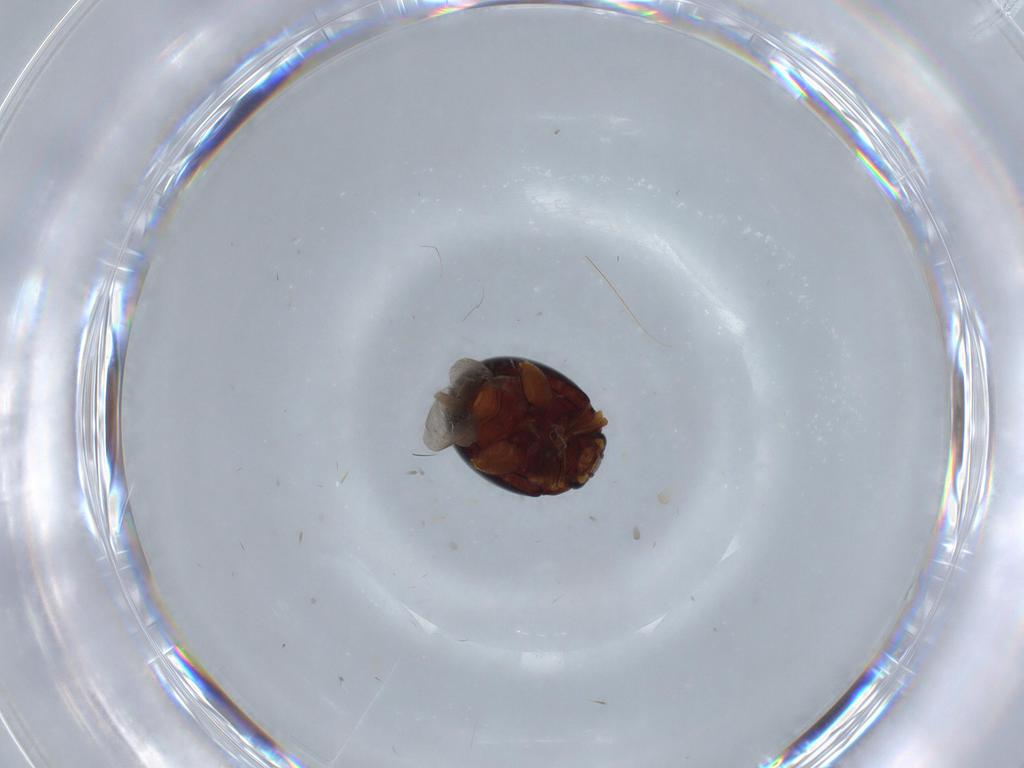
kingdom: Animalia
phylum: Arthropoda
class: Insecta
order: Coleoptera
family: Chrysomelidae
